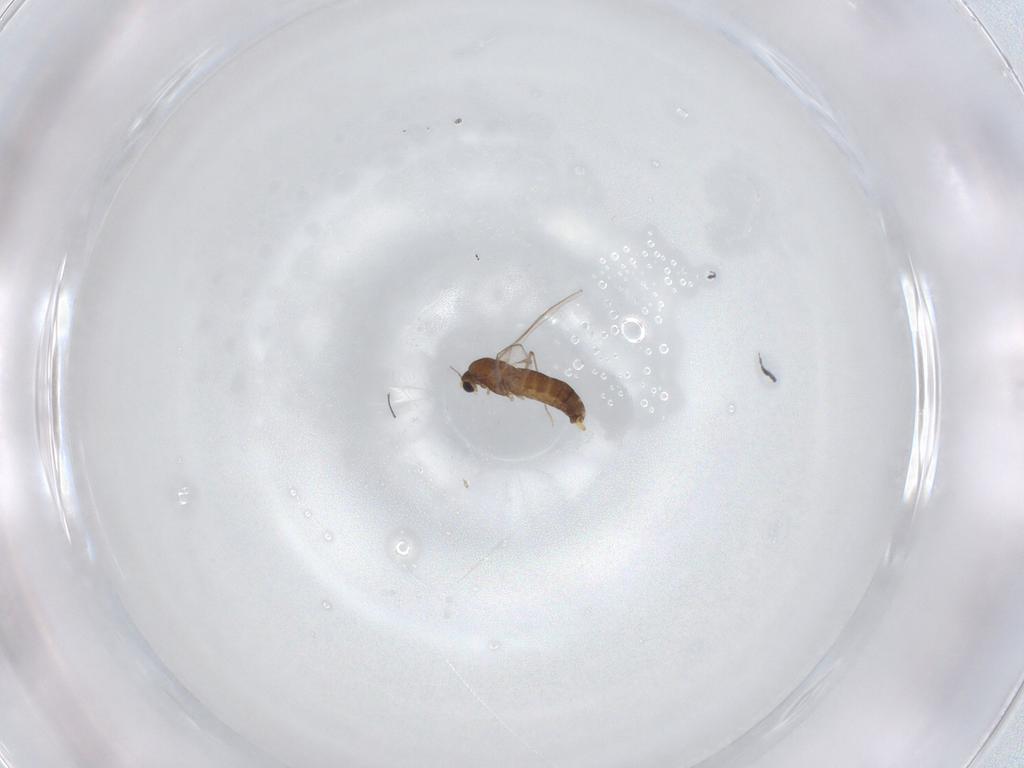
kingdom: Animalia
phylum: Arthropoda
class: Insecta
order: Diptera
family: Chironomidae
